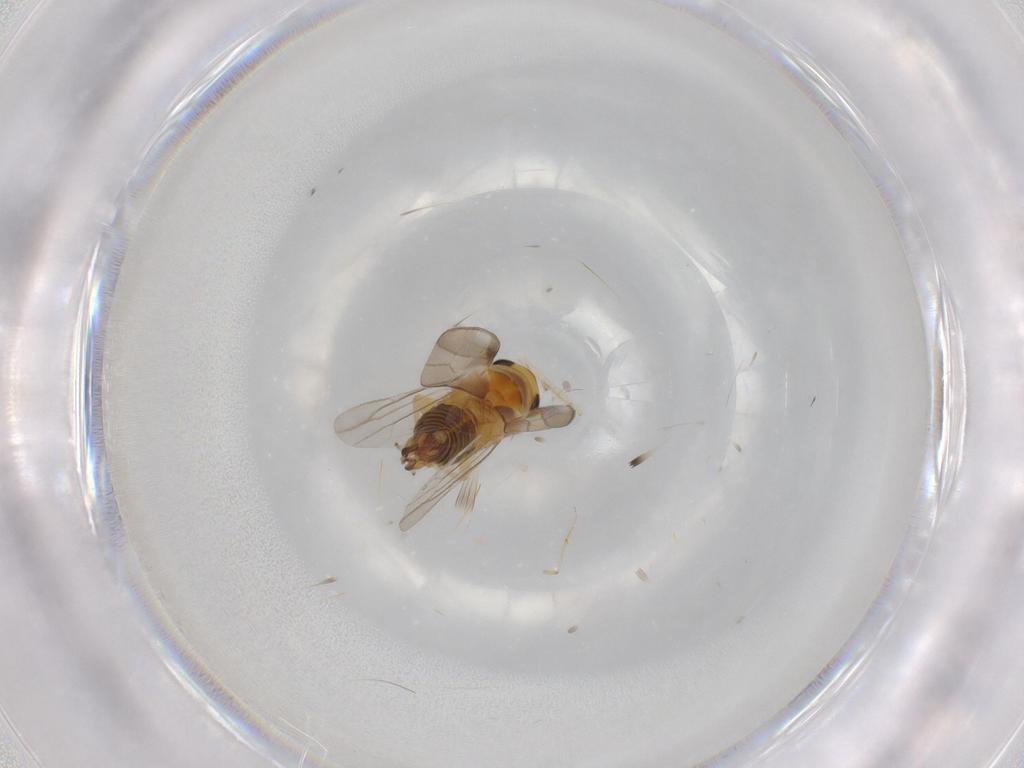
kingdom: Animalia
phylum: Arthropoda
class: Insecta
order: Hemiptera
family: Cicadellidae
